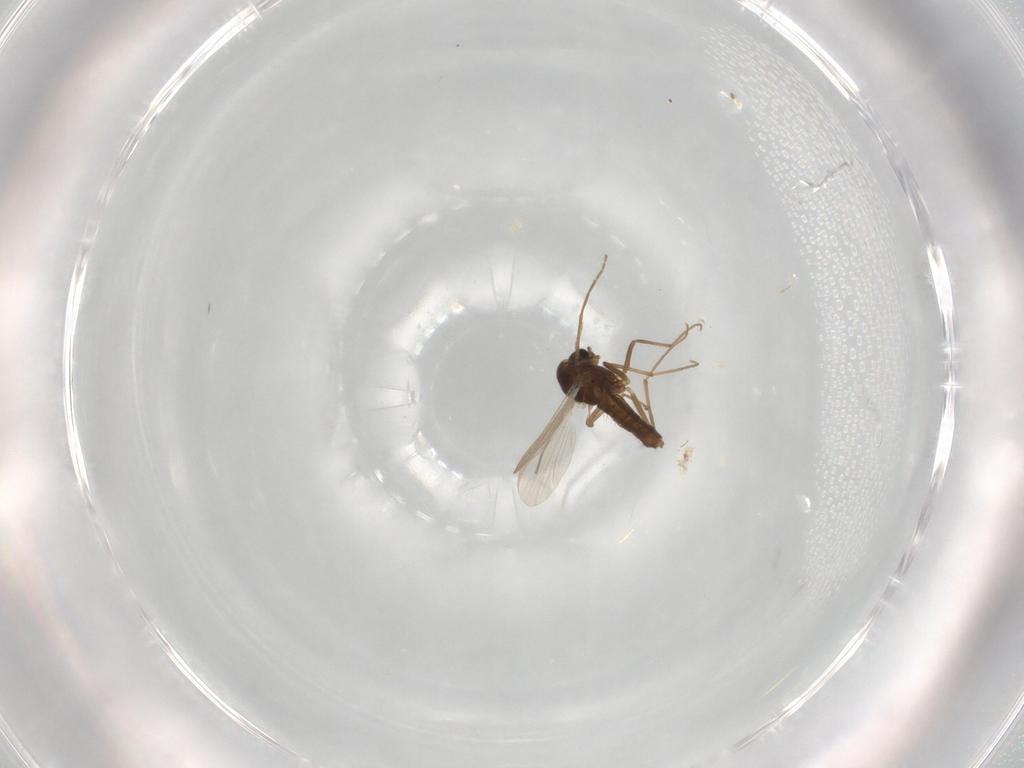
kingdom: Animalia
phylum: Arthropoda
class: Insecta
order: Diptera
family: Chironomidae
